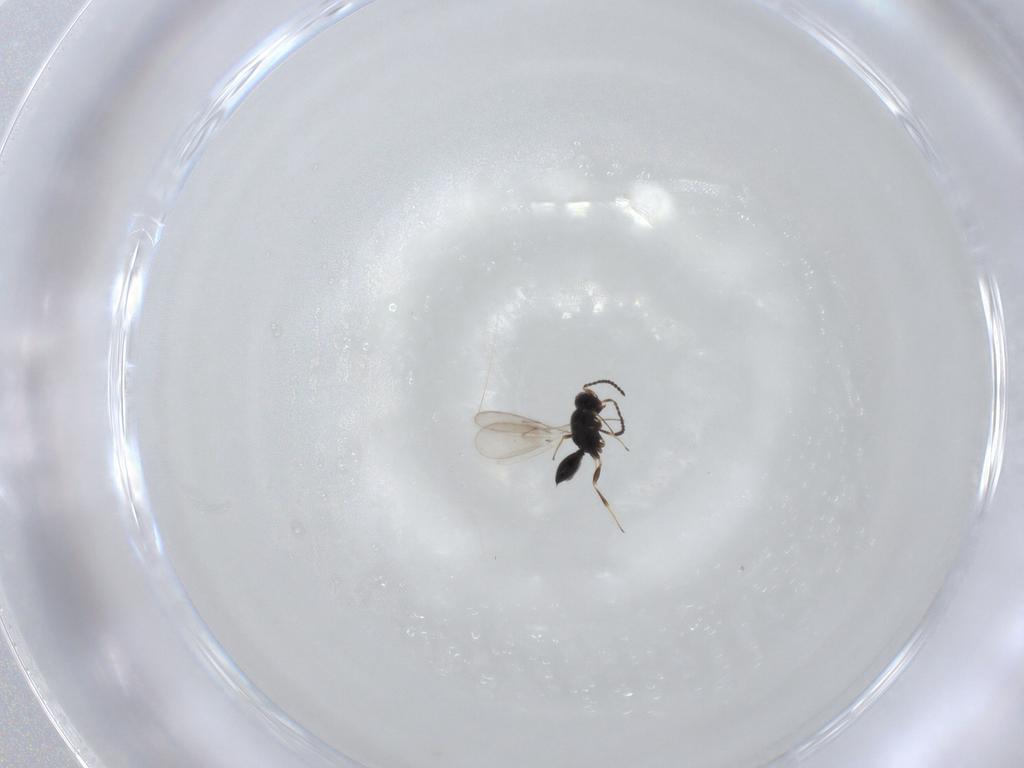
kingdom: Animalia
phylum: Arthropoda
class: Insecta
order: Hymenoptera
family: Scelionidae
